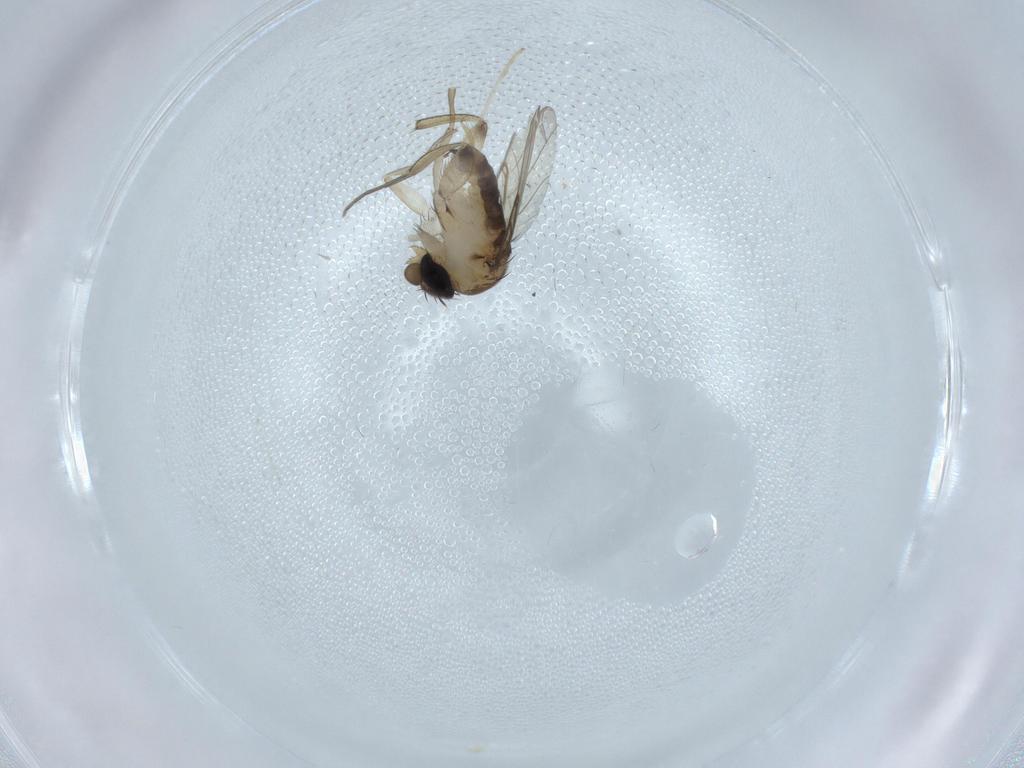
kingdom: Animalia
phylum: Arthropoda
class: Insecta
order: Diptera
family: Phoridae
